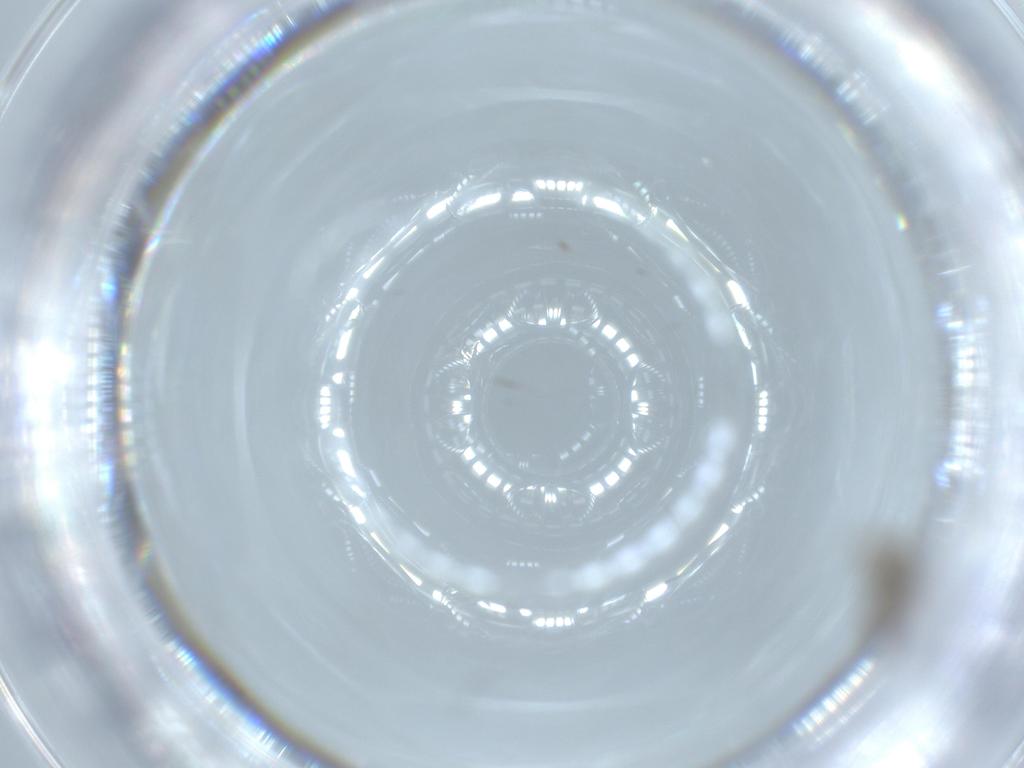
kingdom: Animalia
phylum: Arthropoda
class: Insecta
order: Diptera
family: Cecidomyiidae
